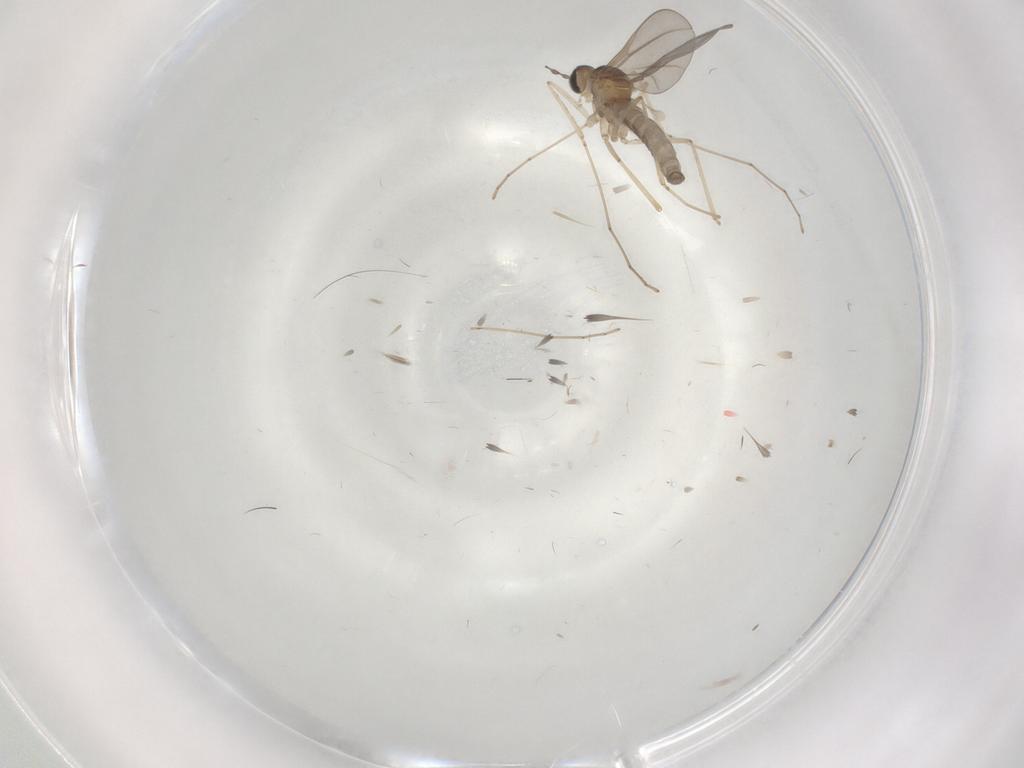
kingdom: Animalia
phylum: Arthropoda
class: Insecta
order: Diptera
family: Cecidomyiidae
